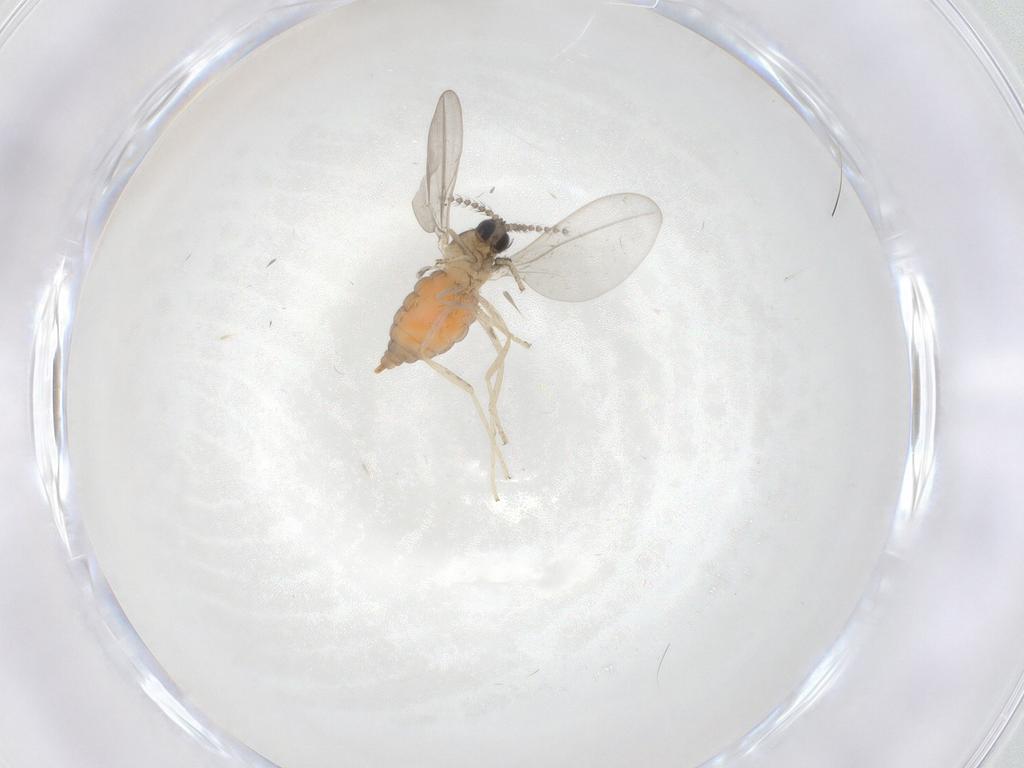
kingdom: Animalia
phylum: Arthropoda
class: Insecta
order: Diptera
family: Cecidomyiidae
